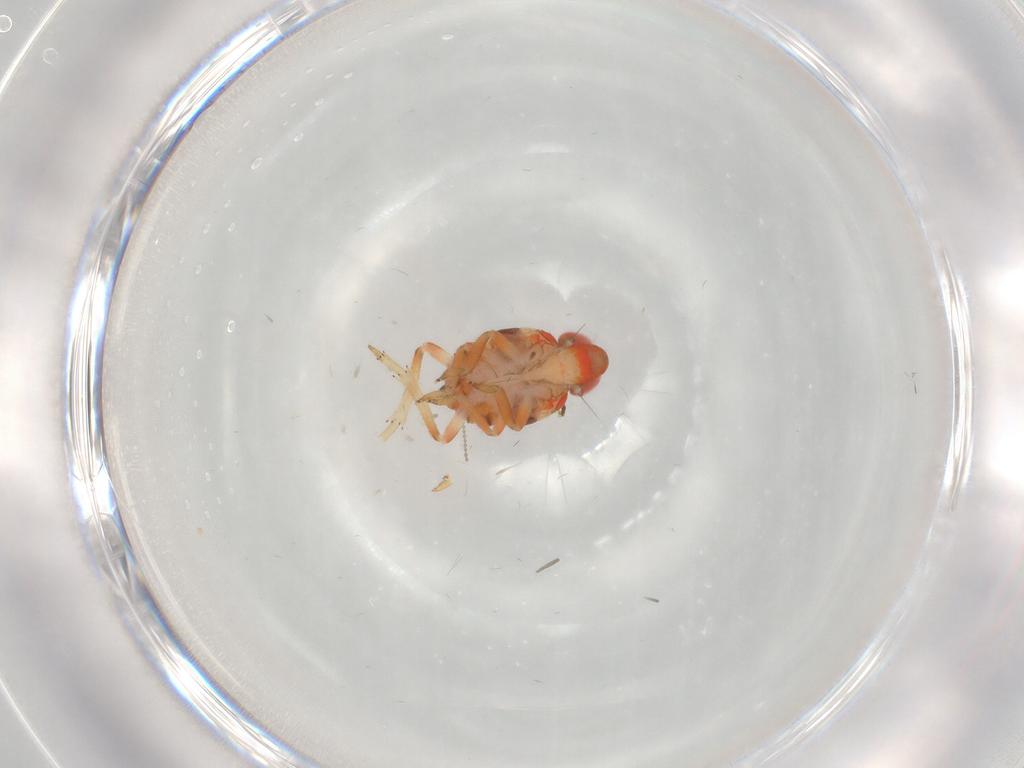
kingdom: Animalia
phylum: Arthropoda
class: Insecta
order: Hemiptera
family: Issidae
